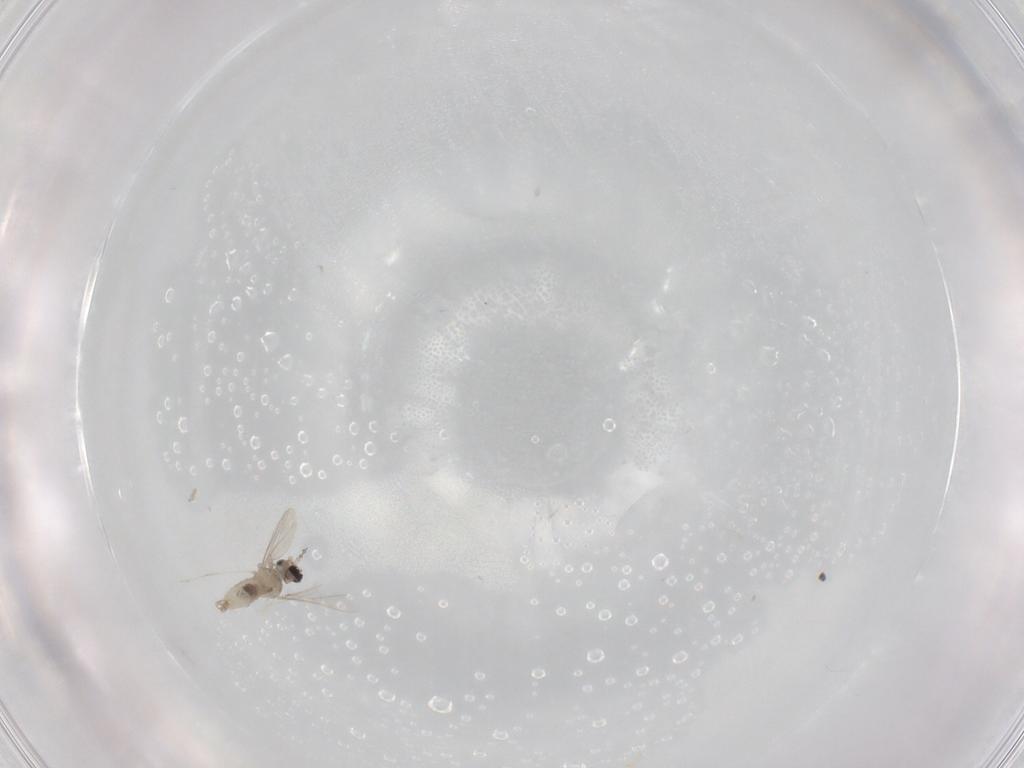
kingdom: Animalia
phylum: Arthropoda
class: Insecta
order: Diptera
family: Cecidomyiidae
